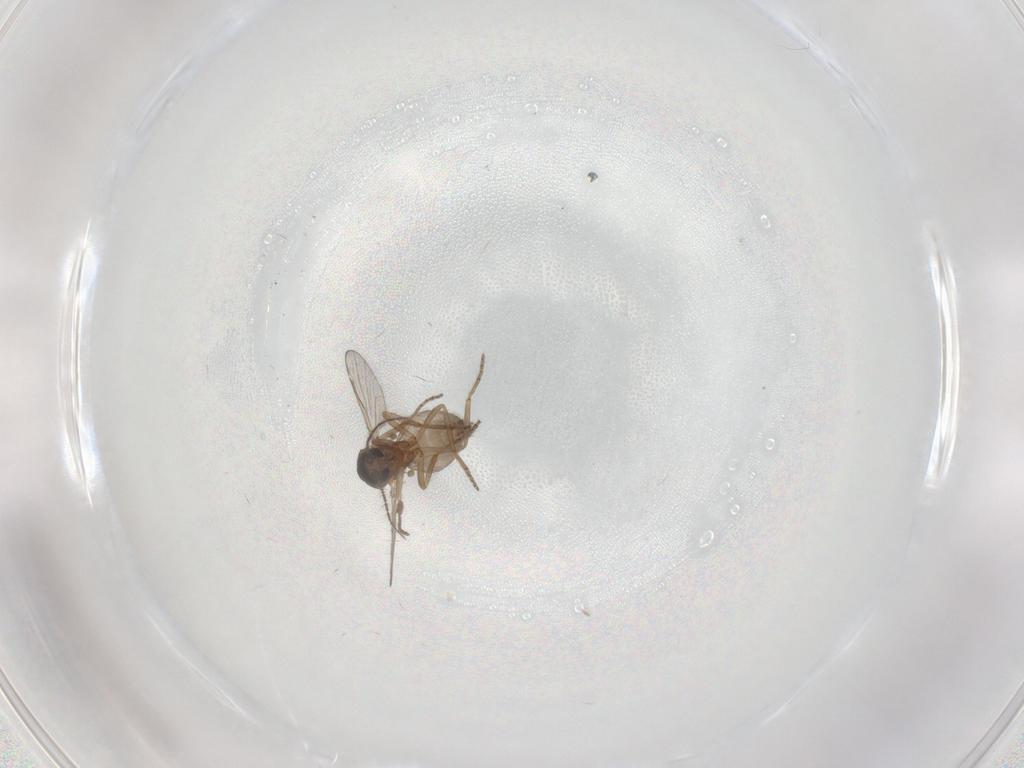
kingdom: Animalia
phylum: Arthropoda
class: Insecta
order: Diptera
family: Ceratopogonidae
